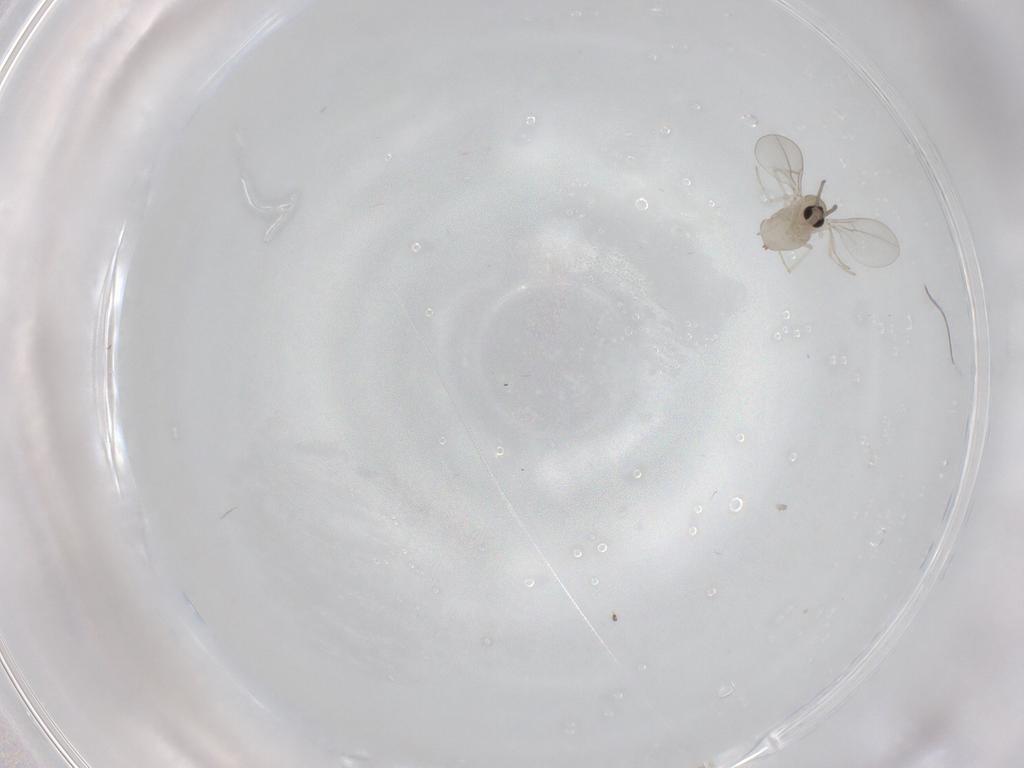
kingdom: Animalia
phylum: Arthropoda
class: Insecta
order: Diptera
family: Cecidomyiidae
